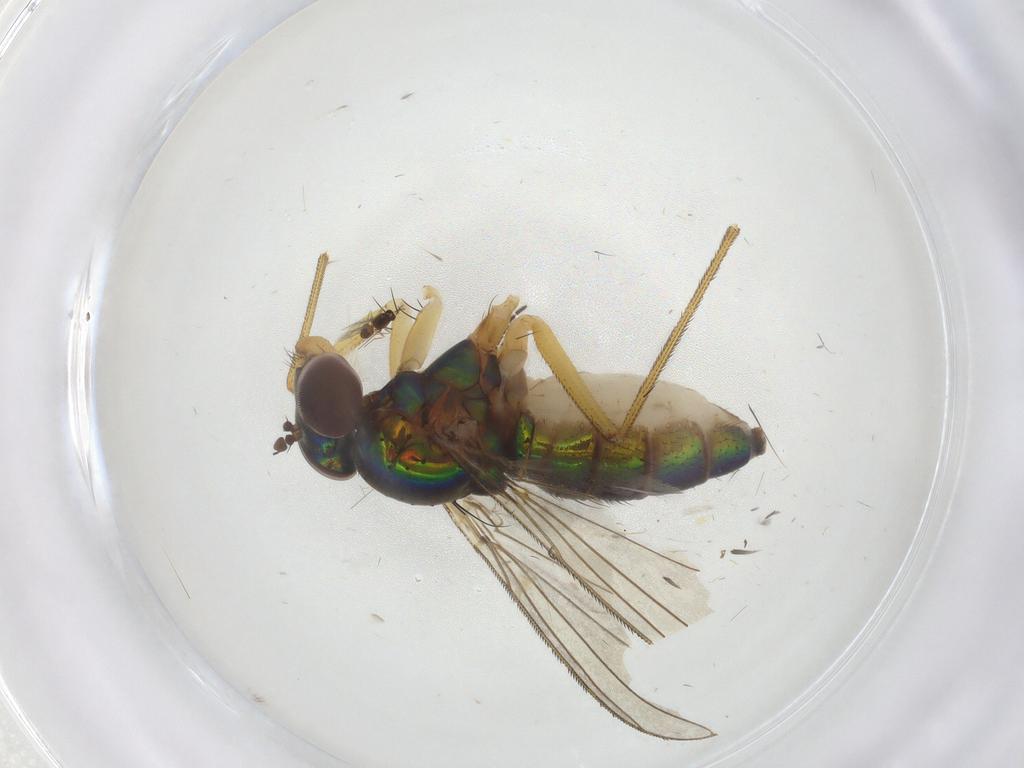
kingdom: Animalia
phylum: Arthropoda
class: Insecta
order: Diptera
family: Dolichopodidae
